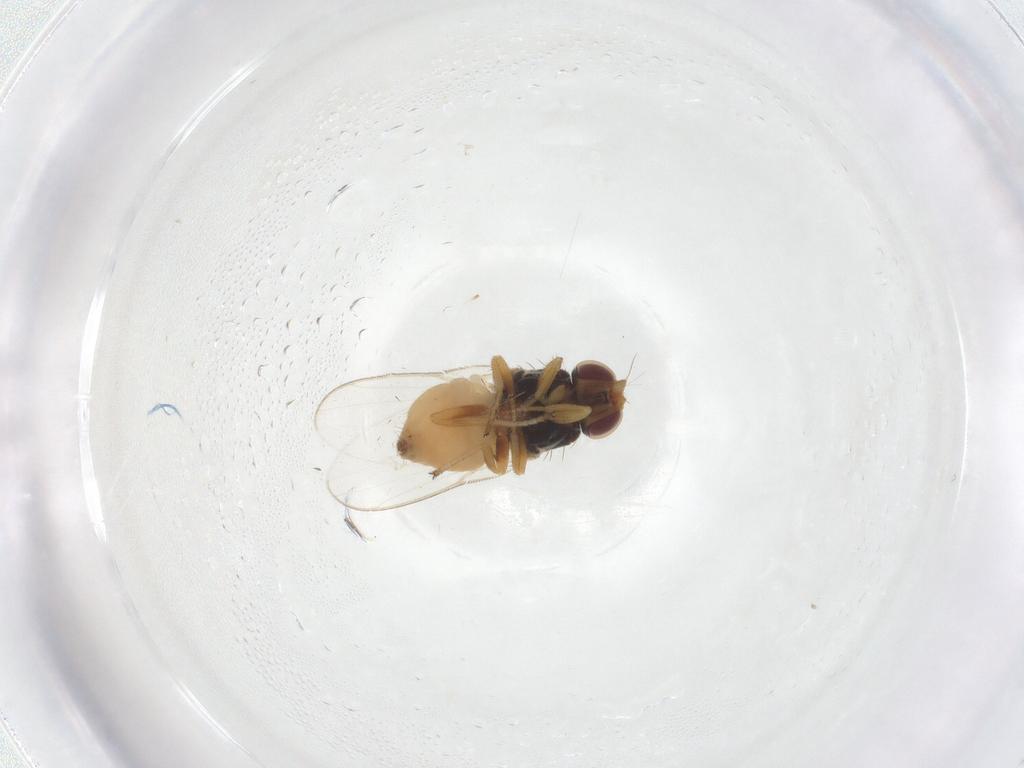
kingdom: Animalia
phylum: Arthropoda
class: Insecta
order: Diptera
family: Chloropidae
